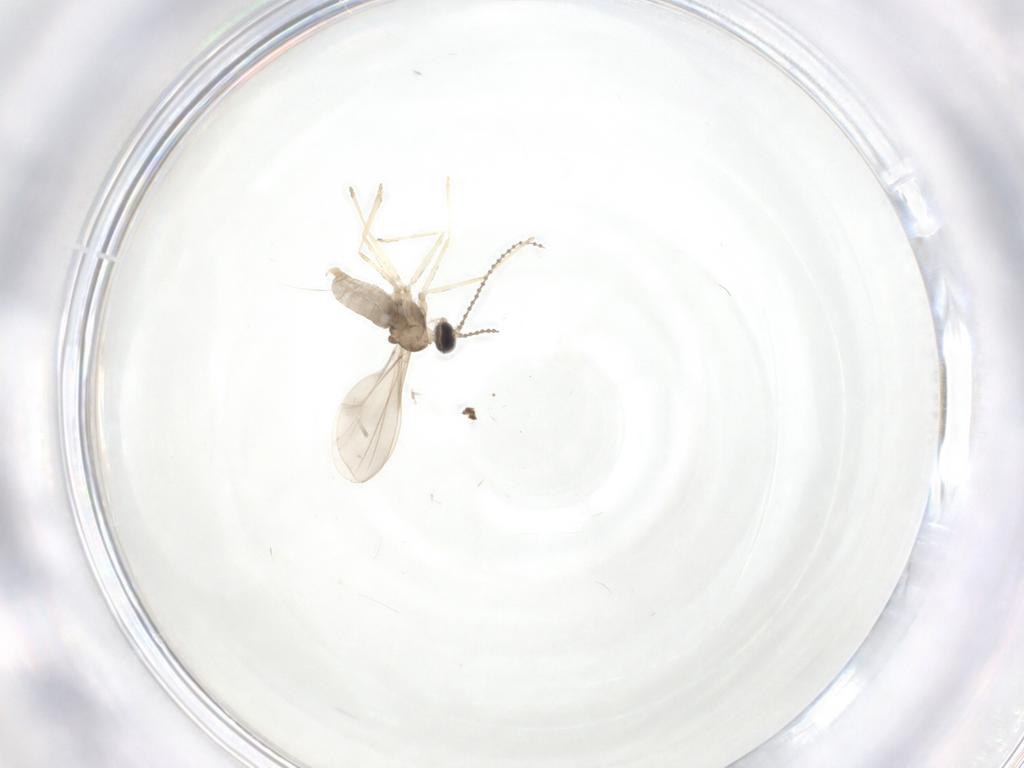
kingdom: Animalia
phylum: Arthropoda
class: Insecta
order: Diptera
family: Cecidomyiidae
